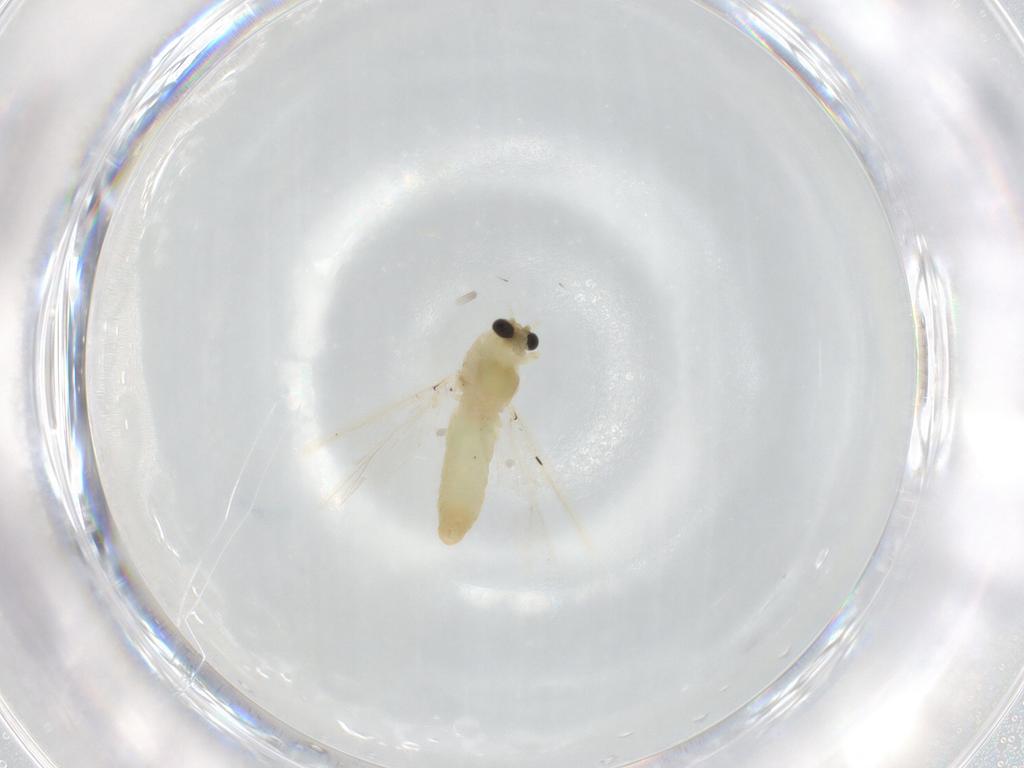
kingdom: Animalia
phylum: Arthropoda
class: Insecta
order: Diptera
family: Chironomidae
